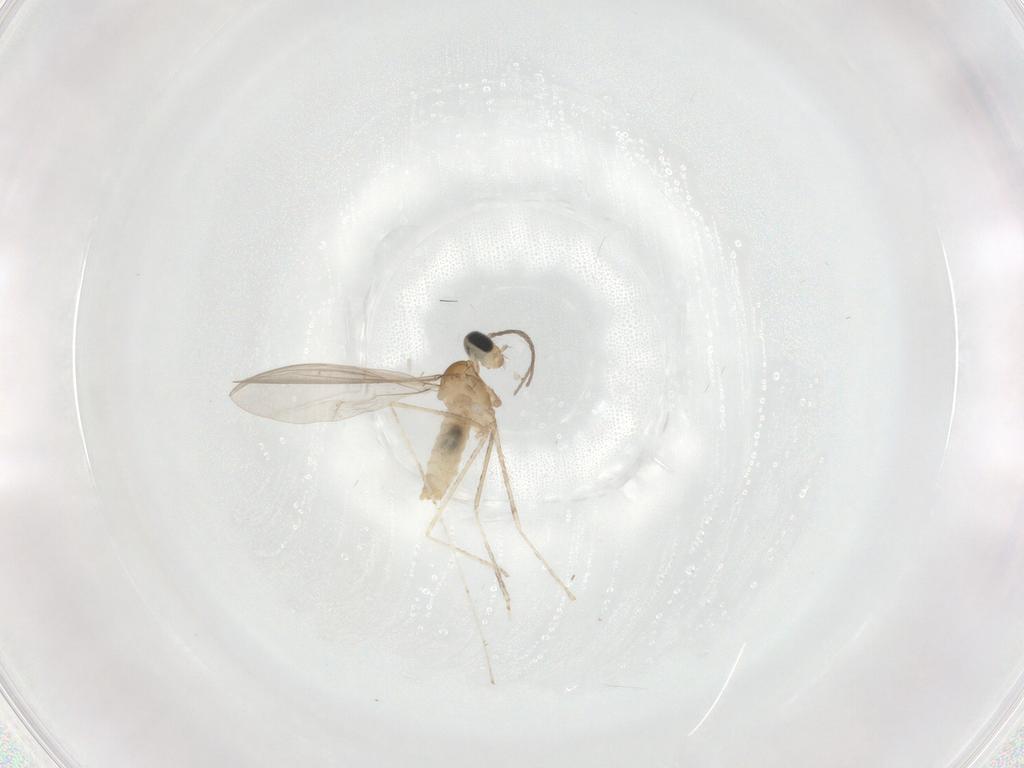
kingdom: Animalia
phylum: Arthropoda
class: Insecta
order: Diptera
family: Cecidomyiidae
